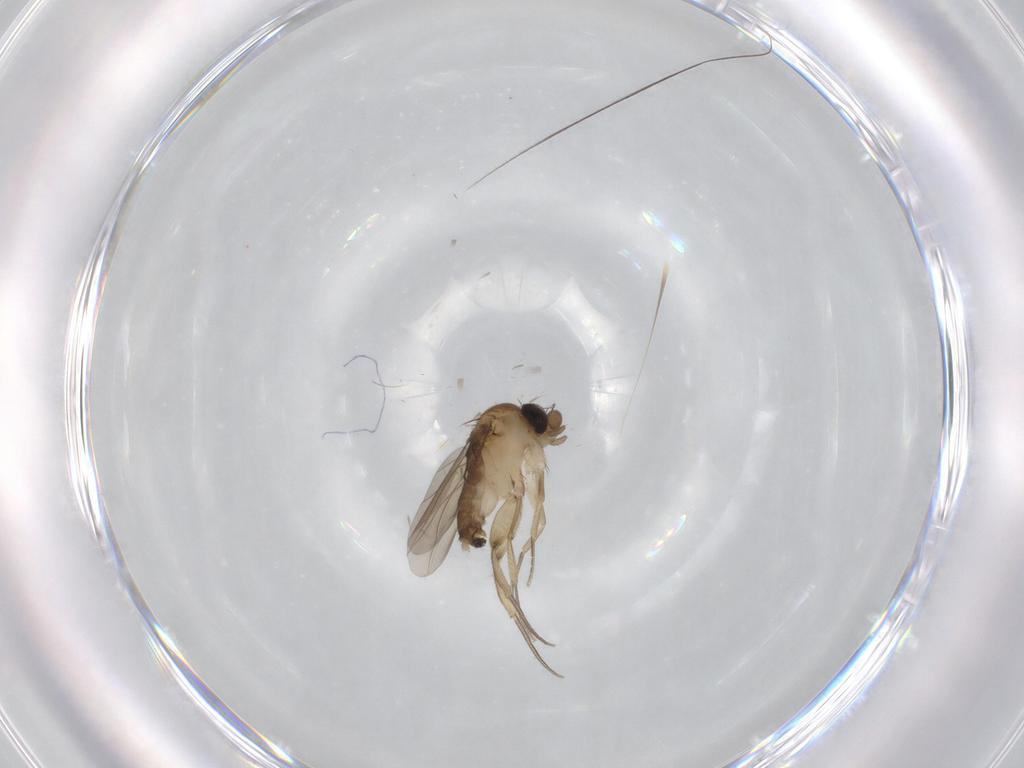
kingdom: Animalia
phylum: Arthropoda
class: Insecta
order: Diptera
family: Phoridae
